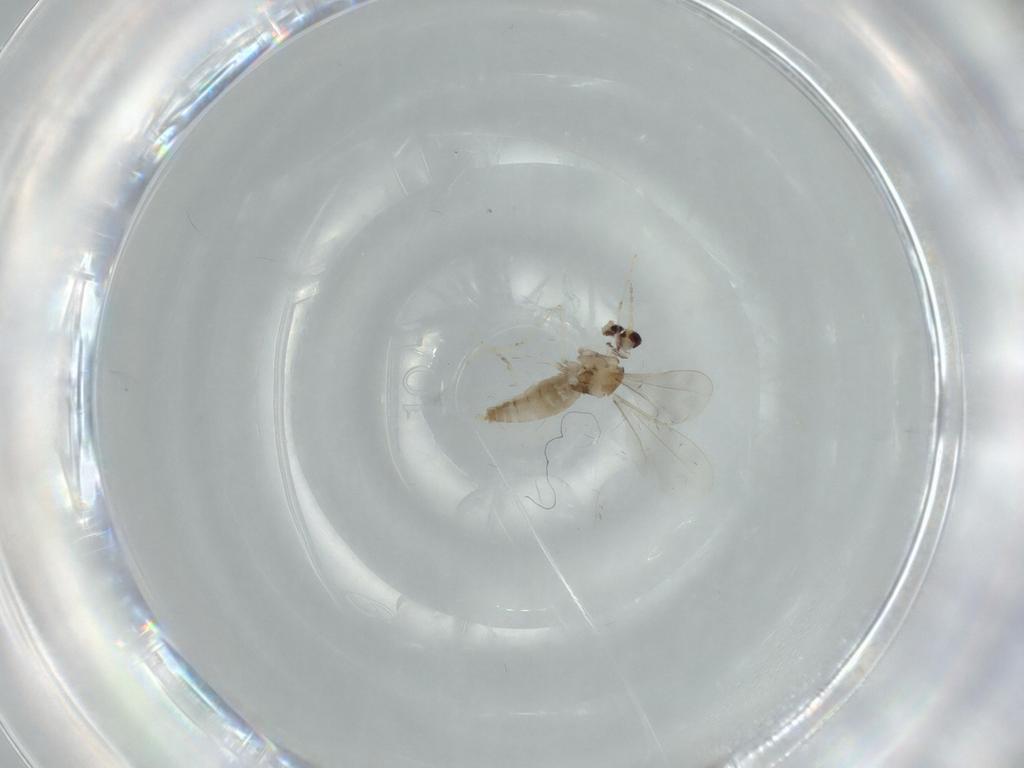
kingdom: Animalia
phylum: Arthropoda
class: Insecta
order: Diptera
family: Cecidomyiidae
